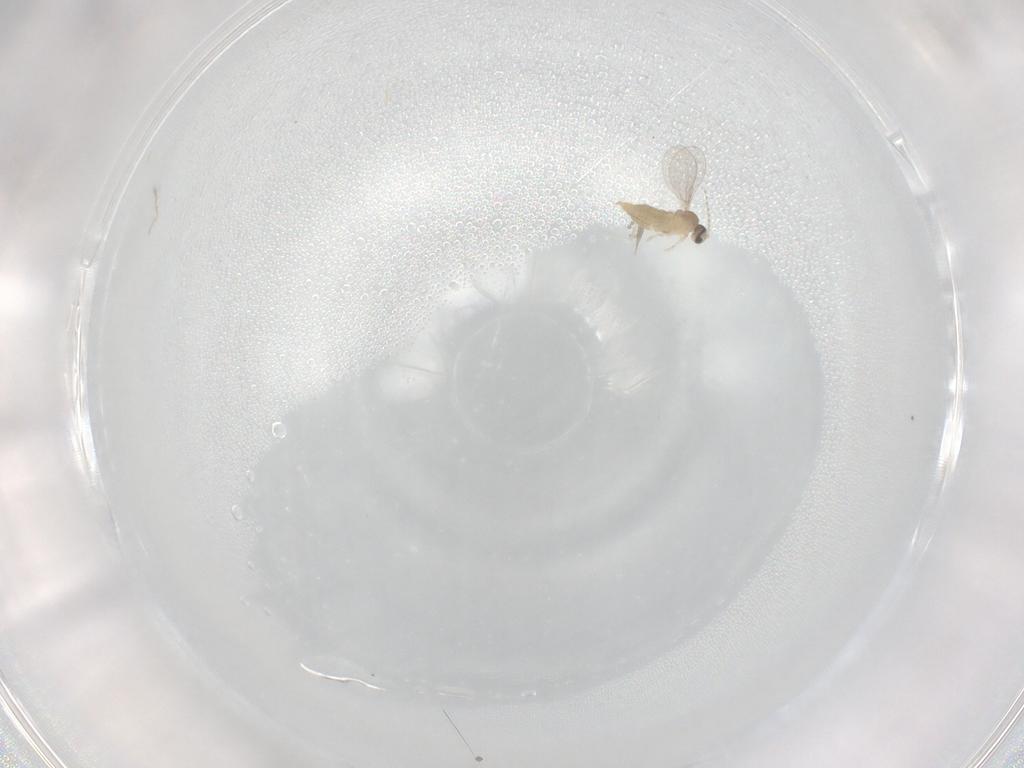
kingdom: Animalia
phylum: Arthropoda
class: Insecta
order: Diptera
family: Cecidomyiidae
